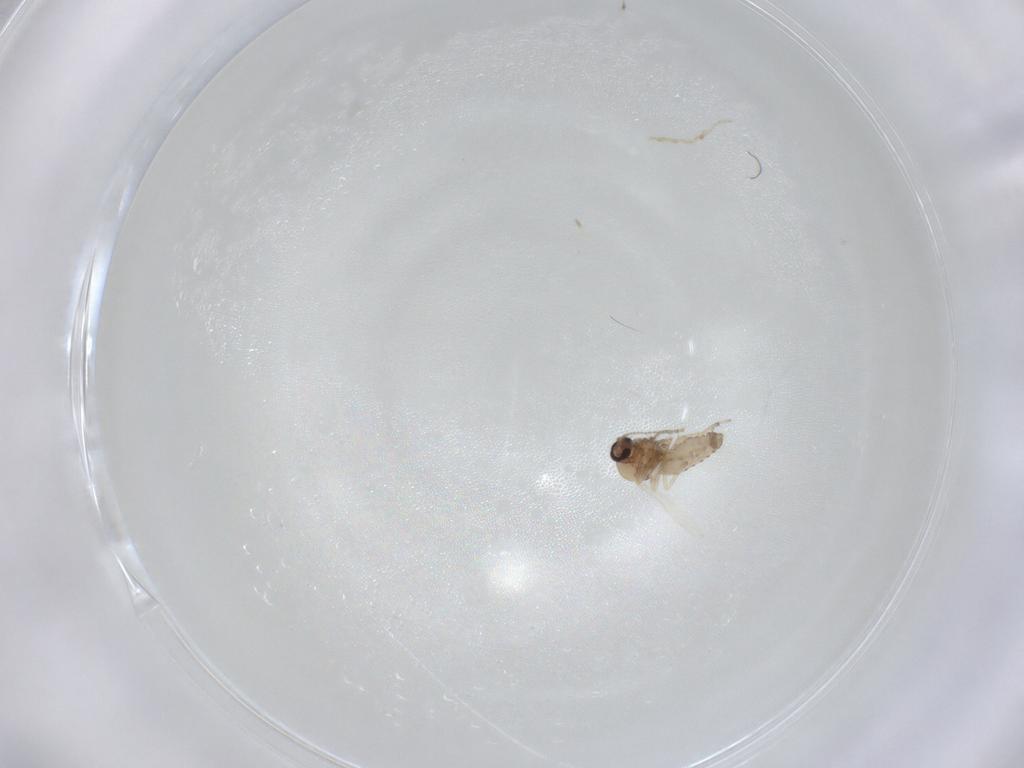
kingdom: Animalia
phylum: Arthropoda
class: Insecta
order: Diptera
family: Ceratopogonidae
